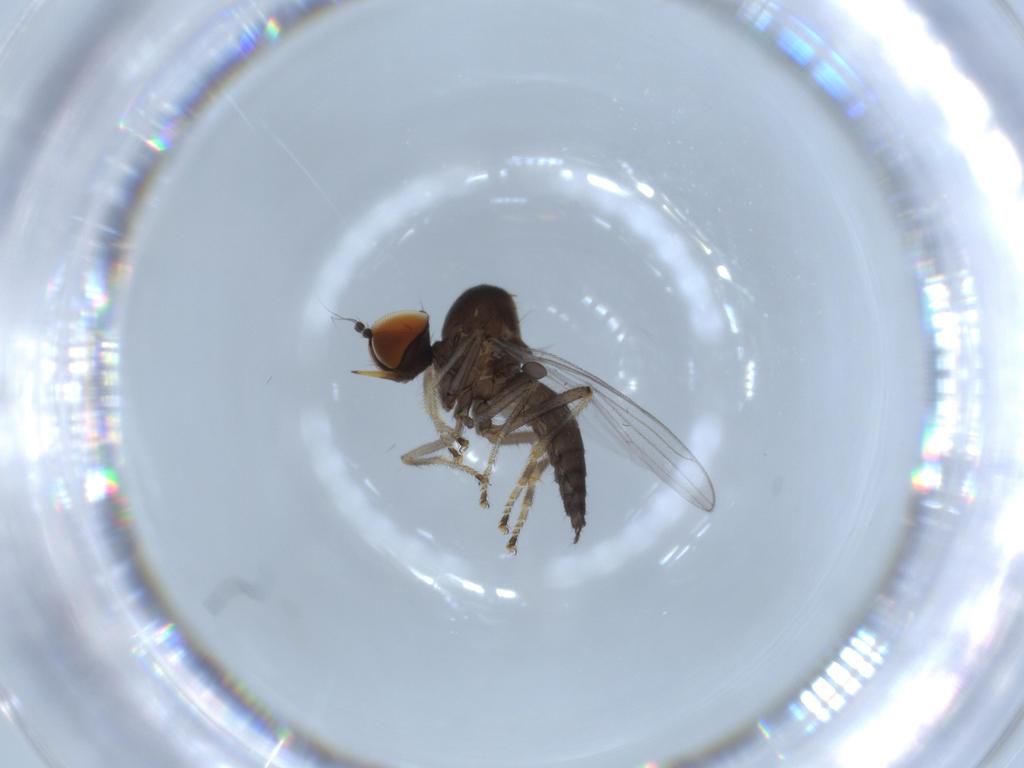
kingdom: Animalia
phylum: Arthropoda
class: Insecta
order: Diptera
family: Hybotidae
